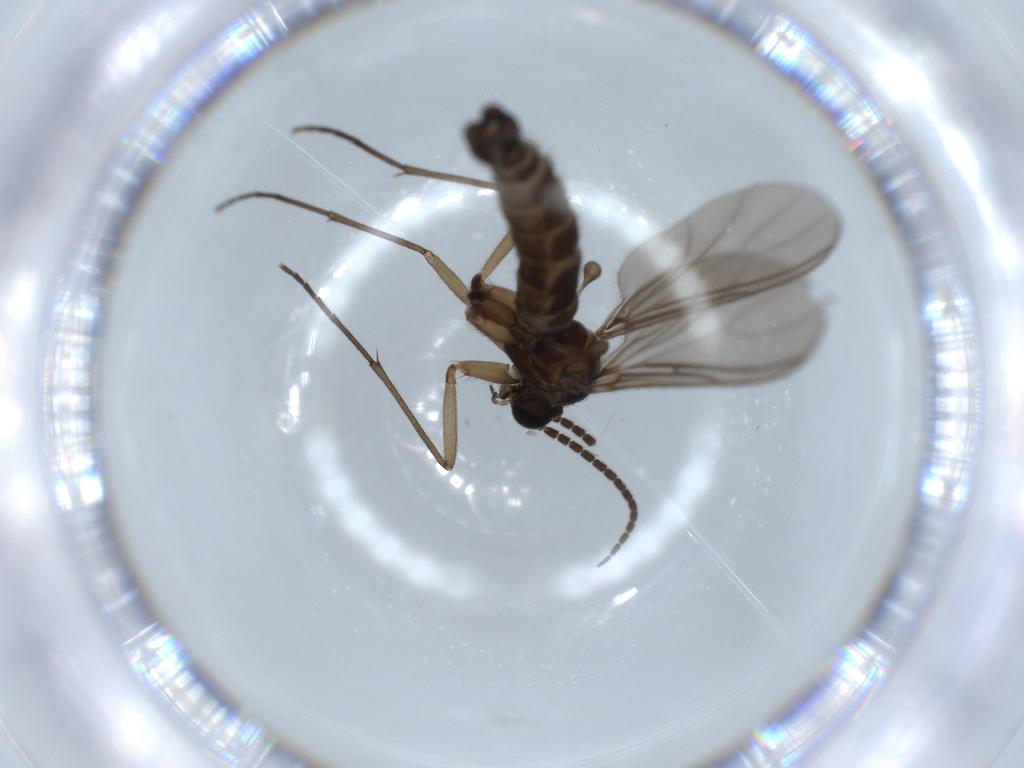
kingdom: Animalia
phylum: Arthropoda
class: Insecta
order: Diptera
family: Sciaridae
